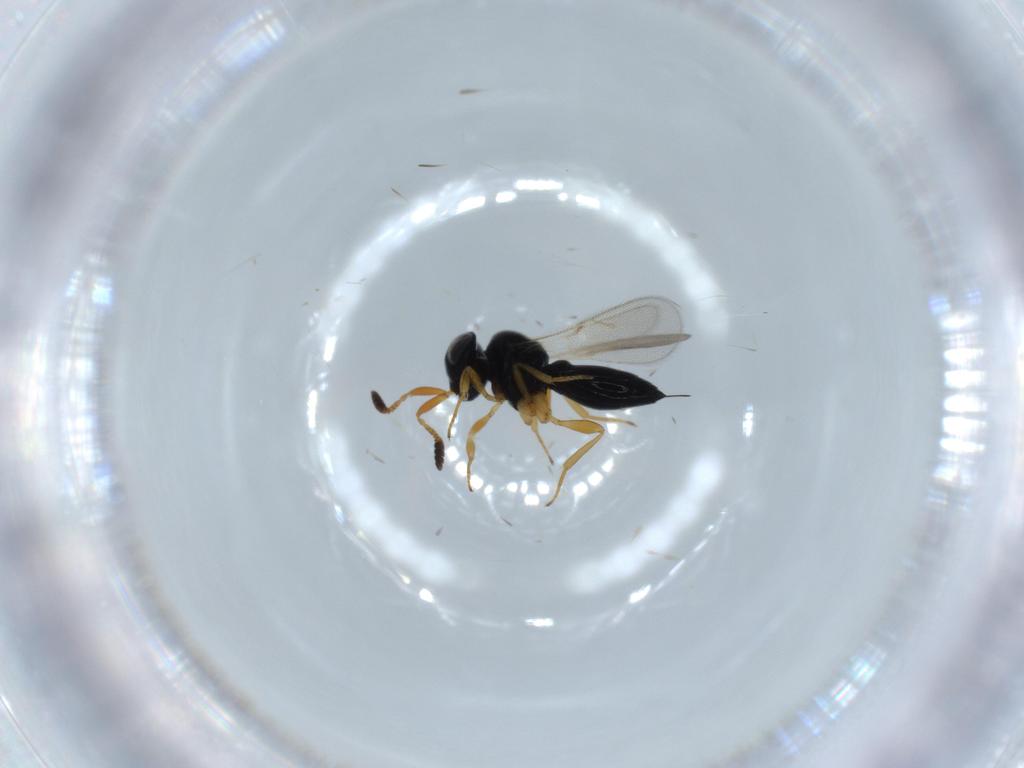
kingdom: Animalia
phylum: Arthropoda
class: Insecta
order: Hymenoptera
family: Scelionidae
